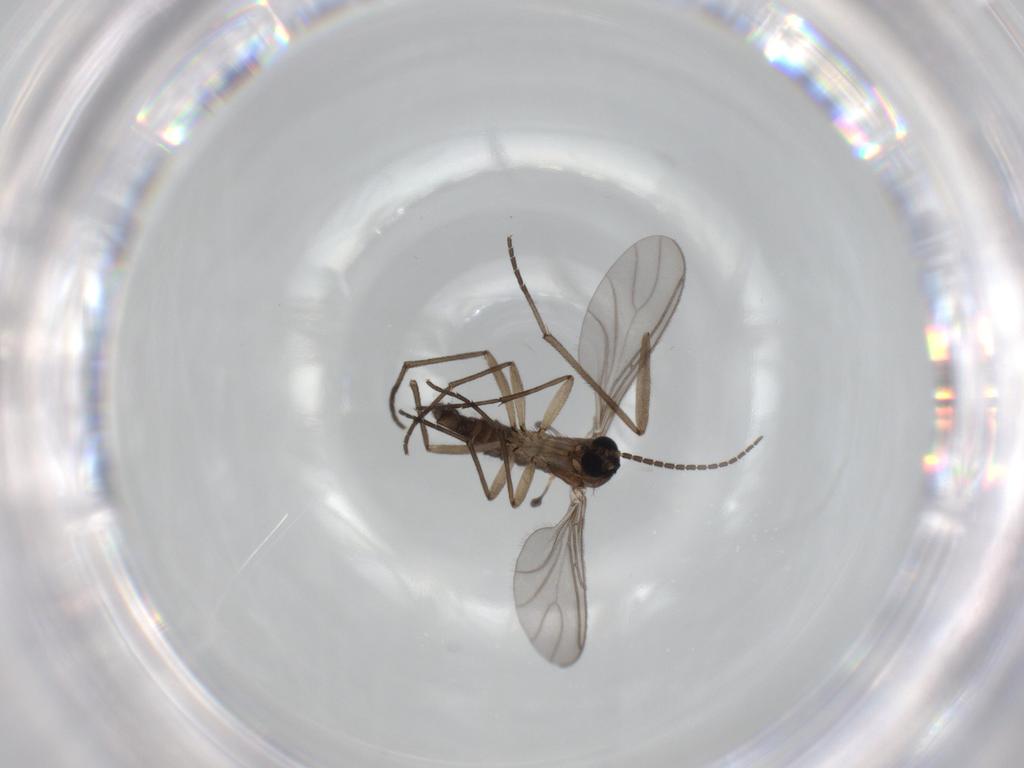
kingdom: Animalia
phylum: Arthropoda
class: Insecta
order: Diptera
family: Sciaridae
